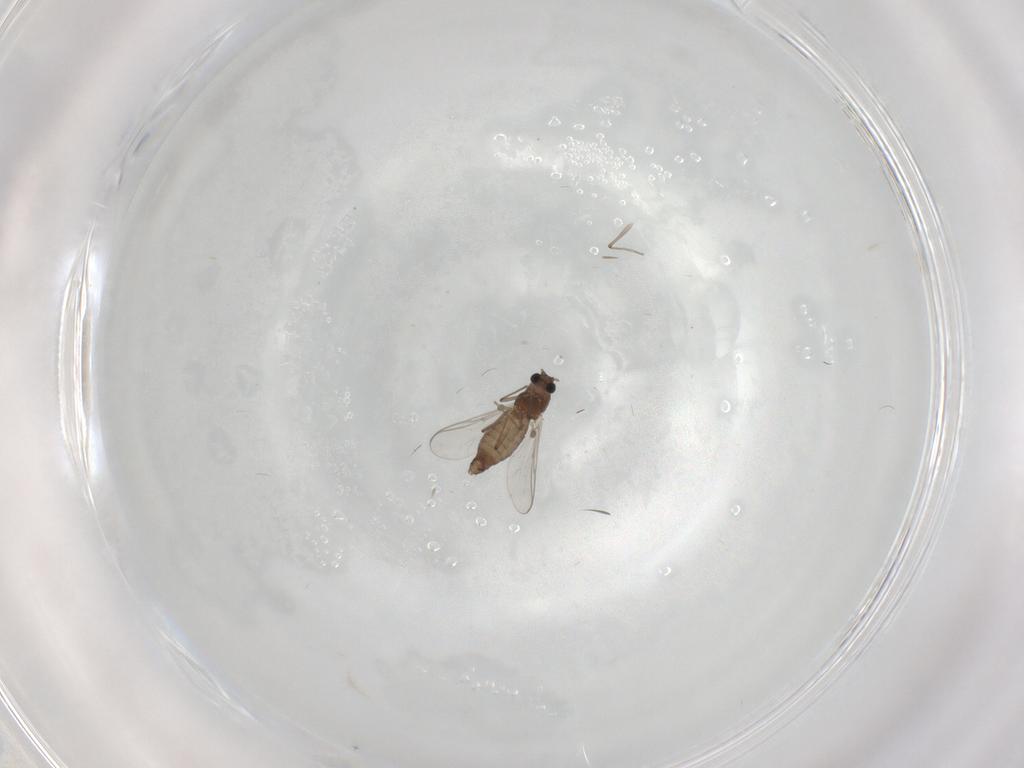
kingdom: Animalia
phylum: Arthropoda
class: Insecta
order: Diptera
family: Chironomidae
